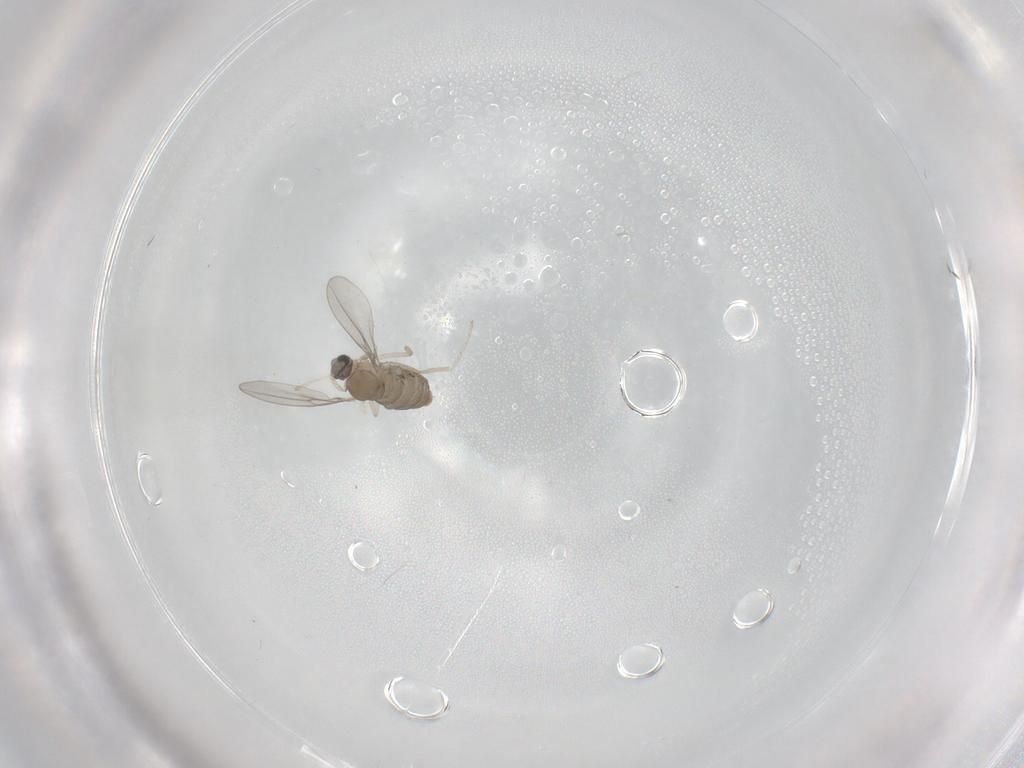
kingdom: Animalia
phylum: Arthropoda
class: Insecta
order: Diptera
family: Cecidomyiidae
